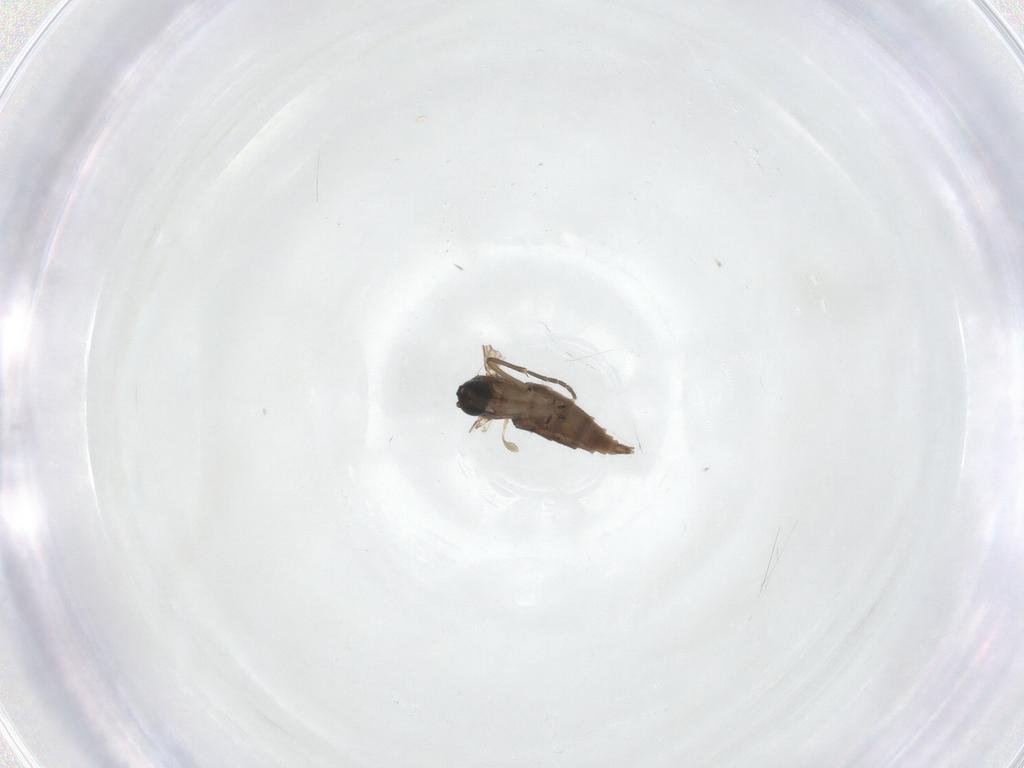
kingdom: Animalia
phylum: Arthropoda
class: Insecta
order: Diptera
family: Sciaridae
